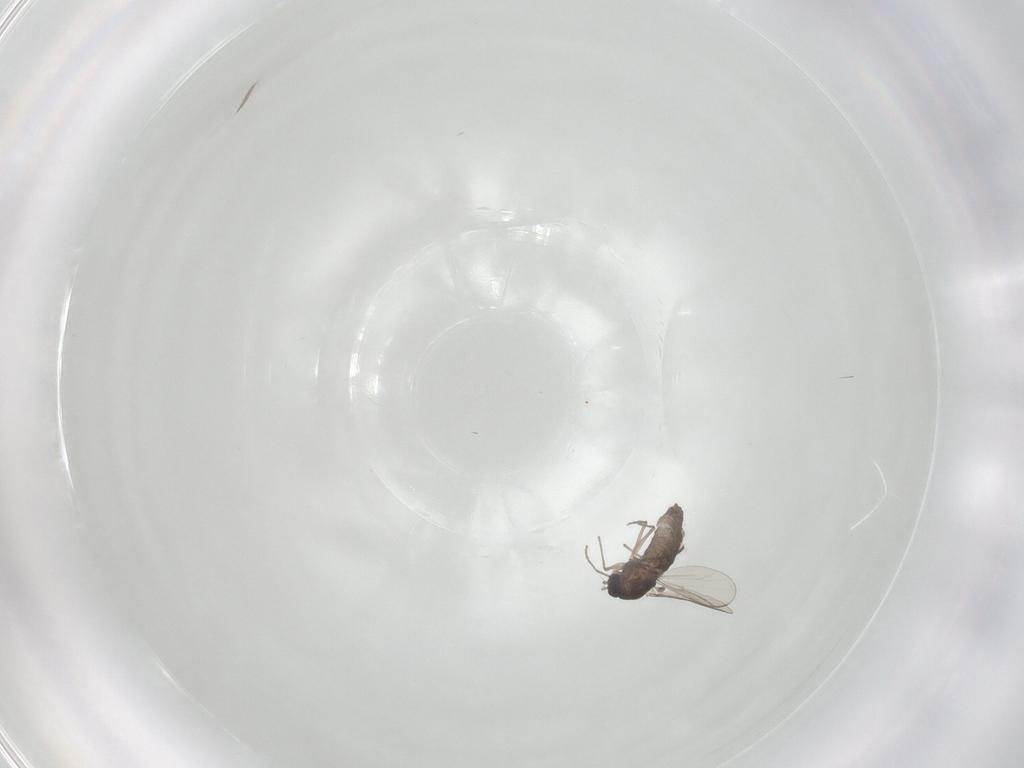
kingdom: Animalia
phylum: Arthropoda
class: Insecta
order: Diptera
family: Chironomidae
